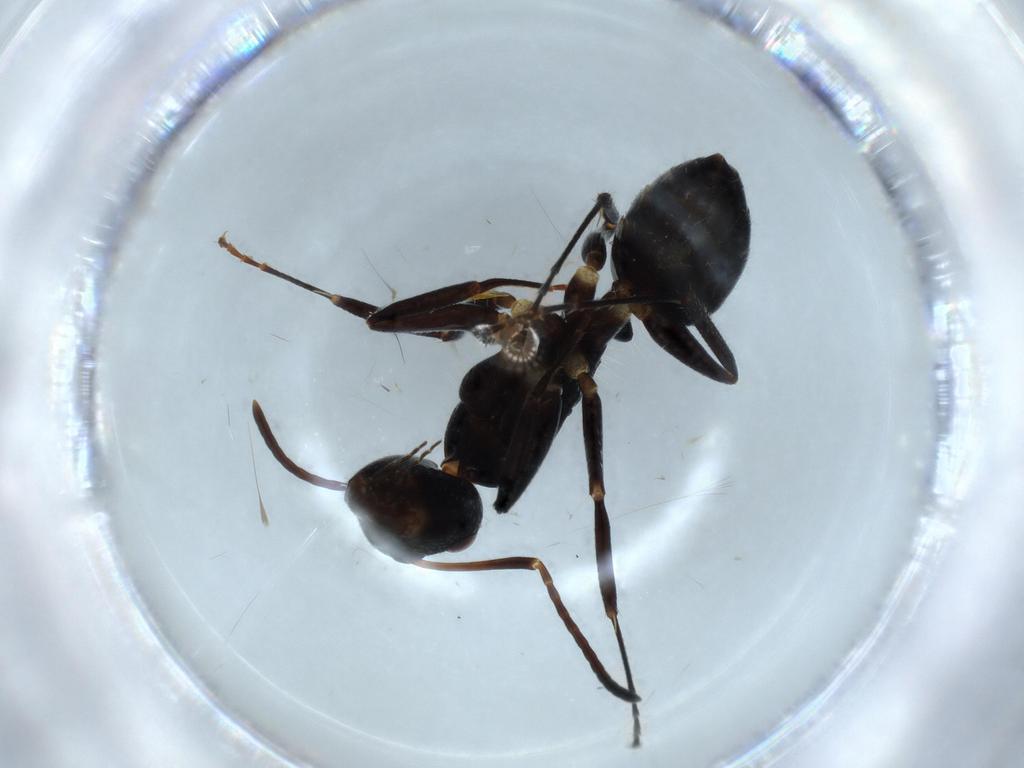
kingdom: Animalia
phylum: Arthropoda
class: Insecta
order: Hymenoptera
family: Formicidae
